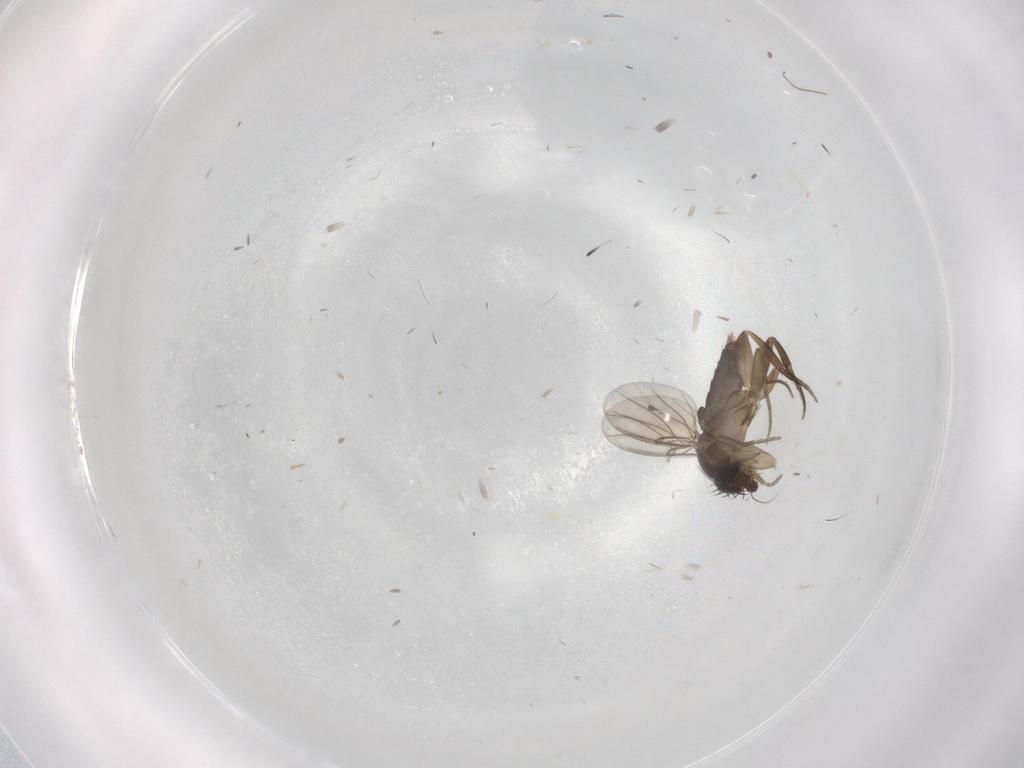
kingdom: Animalia
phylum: Arthropoda
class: Insecta
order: Diptera
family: Phoridae
